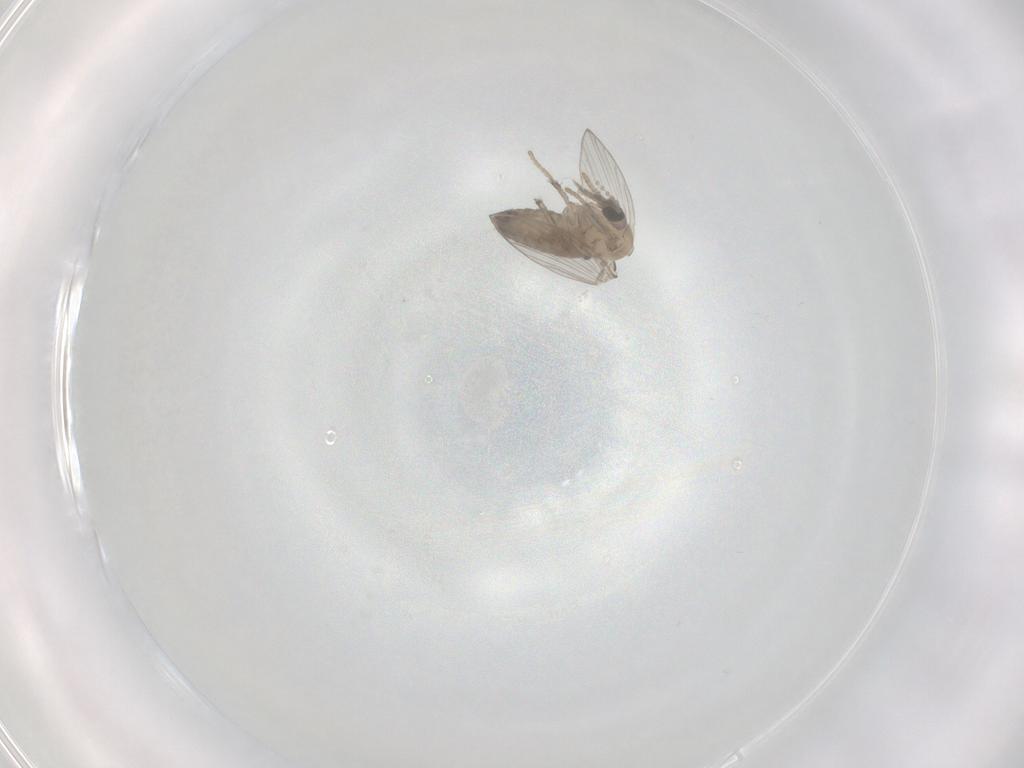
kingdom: Animalia
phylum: Arthropoda
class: Insecta
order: Diptera
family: Psychodidae
